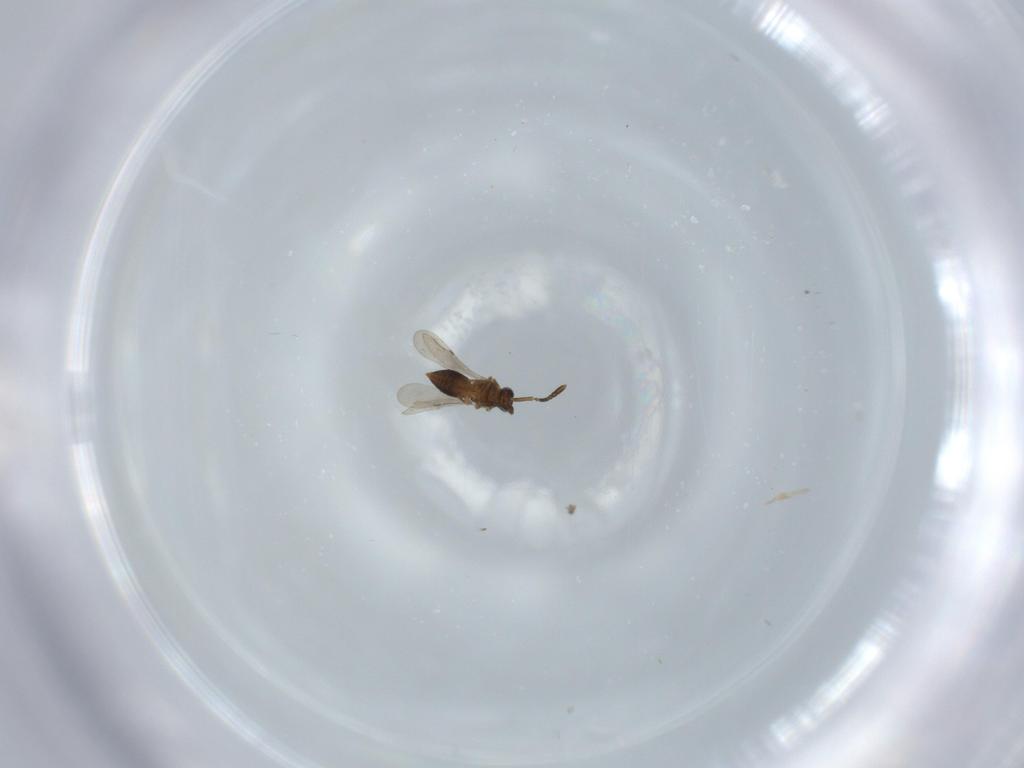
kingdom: Animalia
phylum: Arthropoda
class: Insecta
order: Hymenoptera
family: Ceraphronidae
